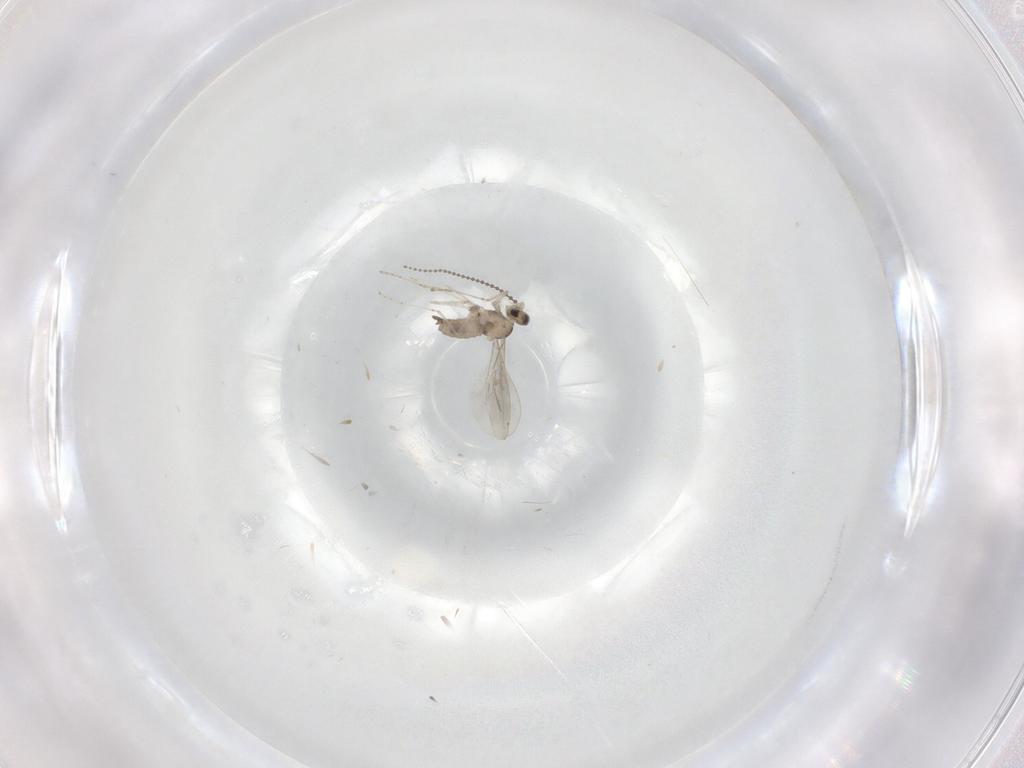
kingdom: Animalia
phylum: Arthropoda
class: Insecta
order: Diptera
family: Cecidomyiidae
